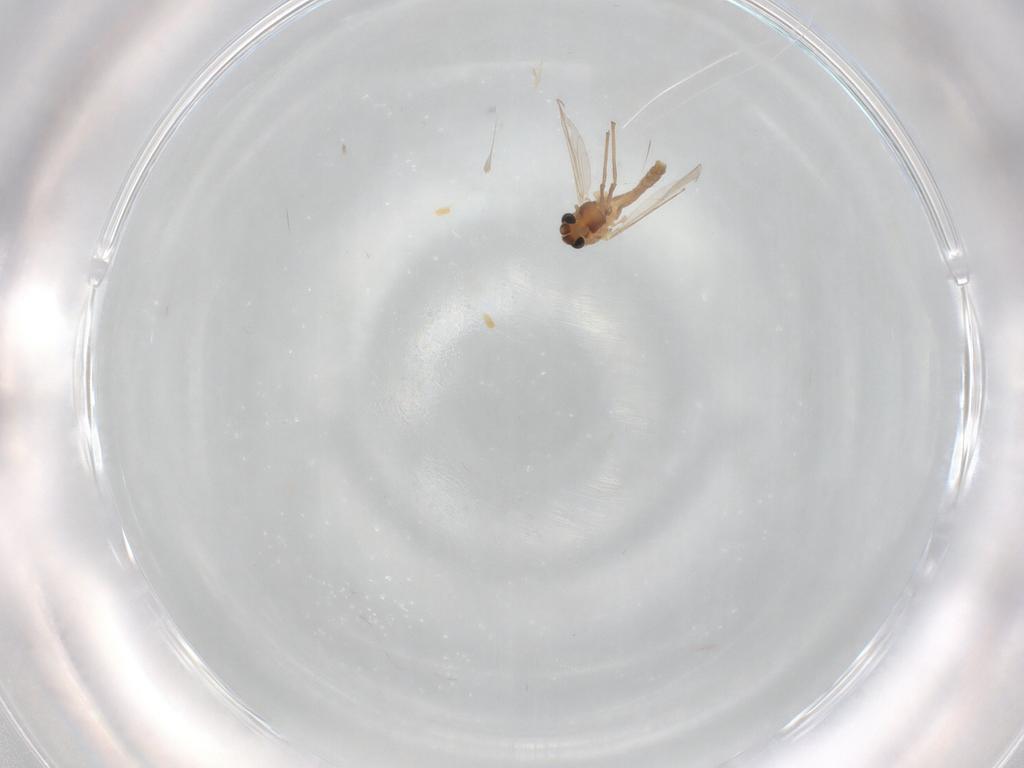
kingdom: Animalia
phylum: Arthropoda
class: Insecta
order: Diptera
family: Chironomidae
